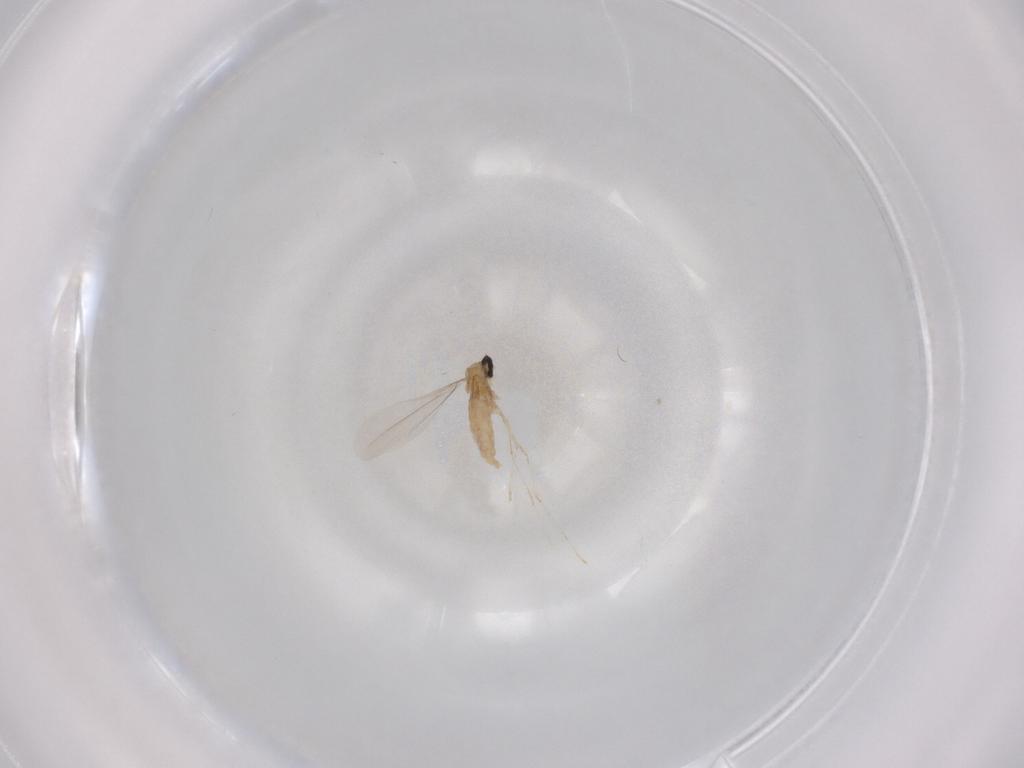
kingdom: Animalia
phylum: Arthropoda
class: Insecta
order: Diptera
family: Cecidomyiidae
